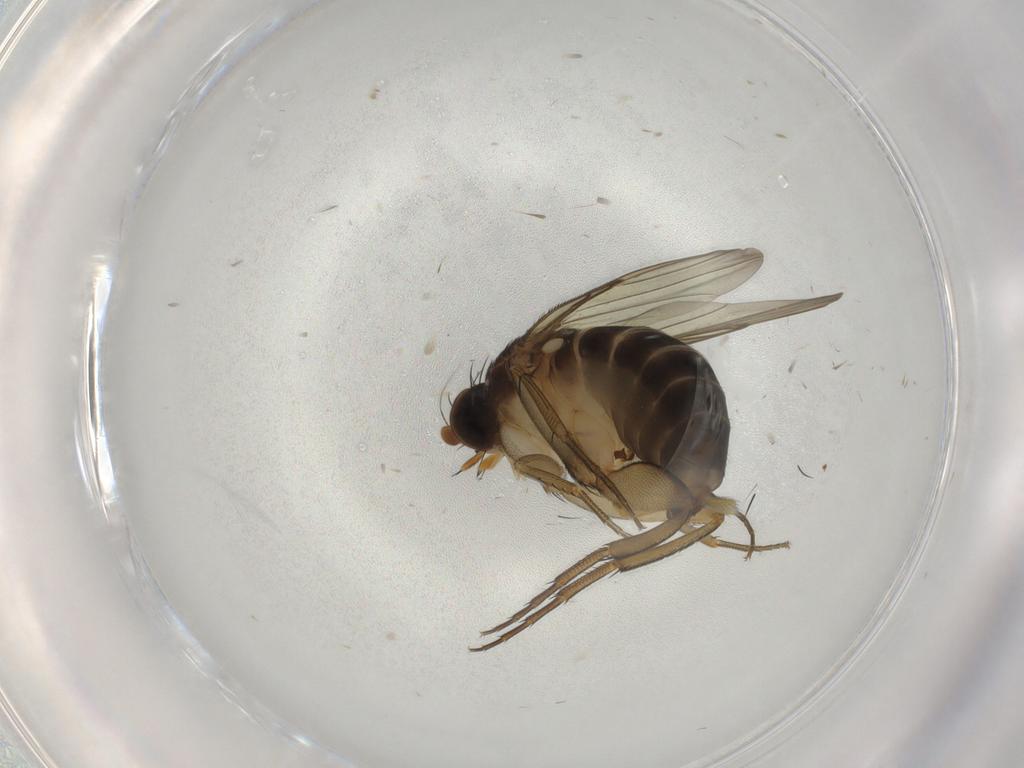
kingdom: Animalia
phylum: Arthropoda
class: Insecta
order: Diptera
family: Phoridae
